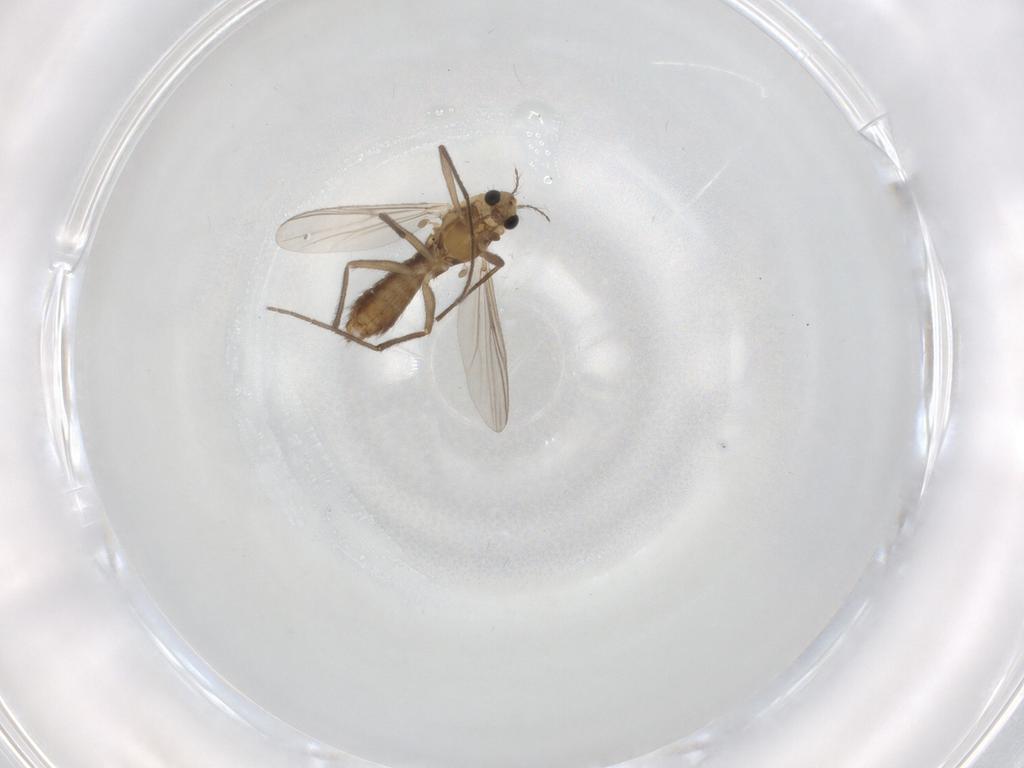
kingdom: Animalia
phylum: Arthropoda
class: Insecta
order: Diptera
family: Chironomidae
